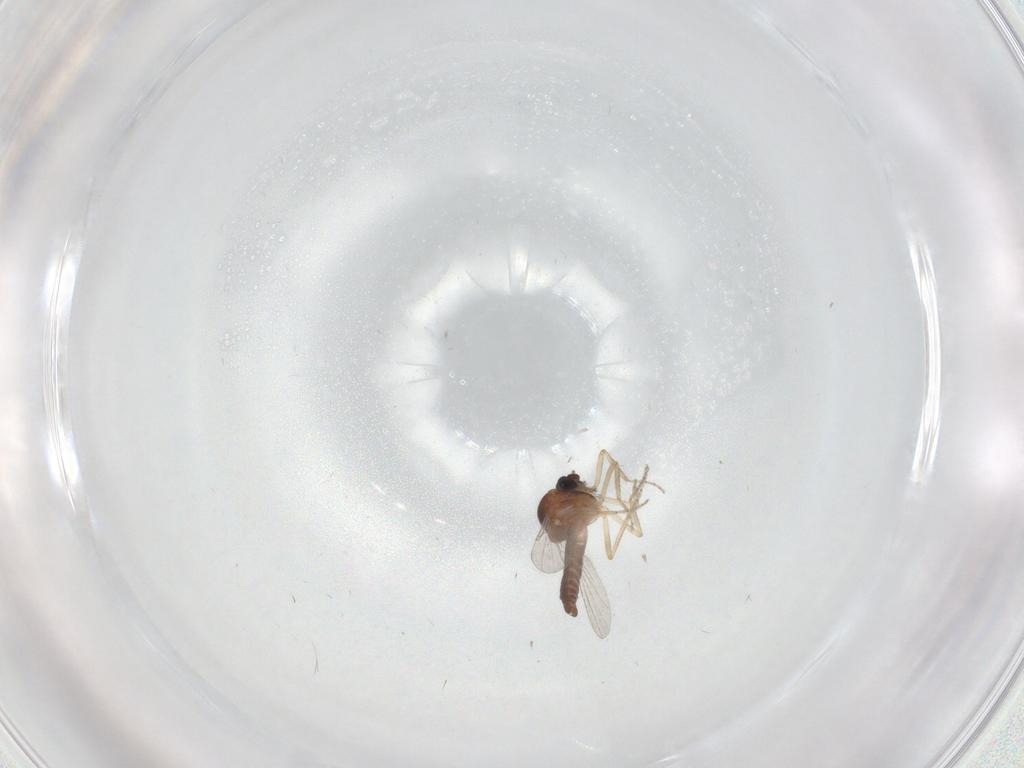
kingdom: Animalia
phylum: Arthropoda
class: Insecta
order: Diptera
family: Ceratopogonidae
